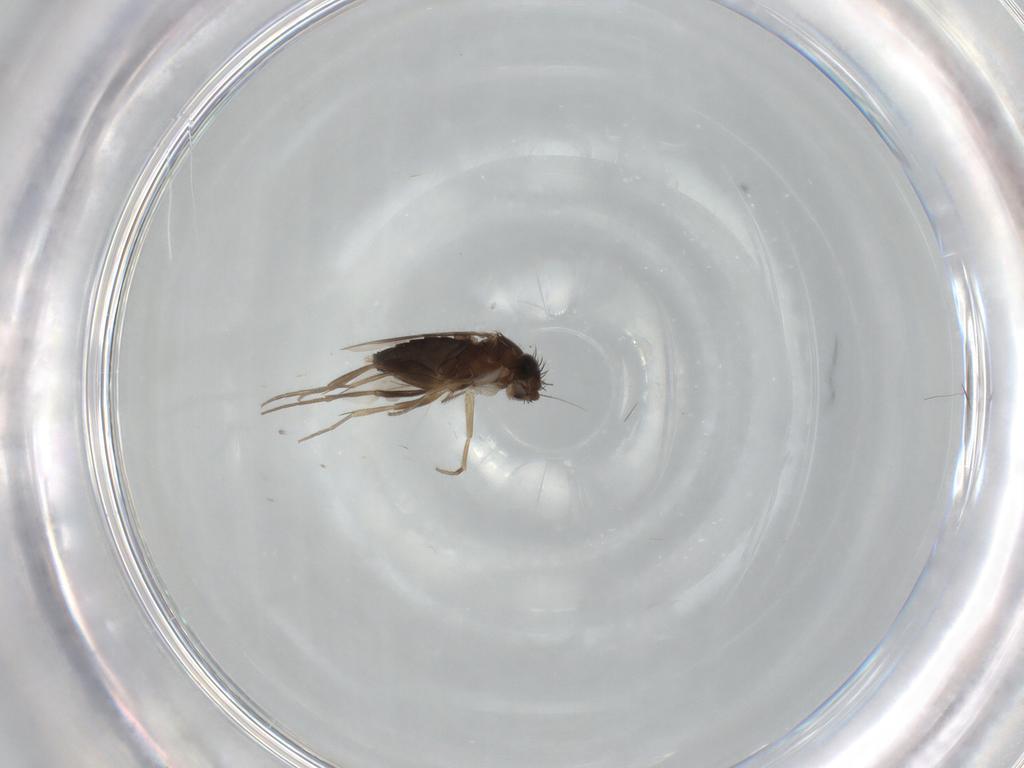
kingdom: Animalia
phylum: Arthropoda
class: Insecta
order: Diptera
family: Phoridae
